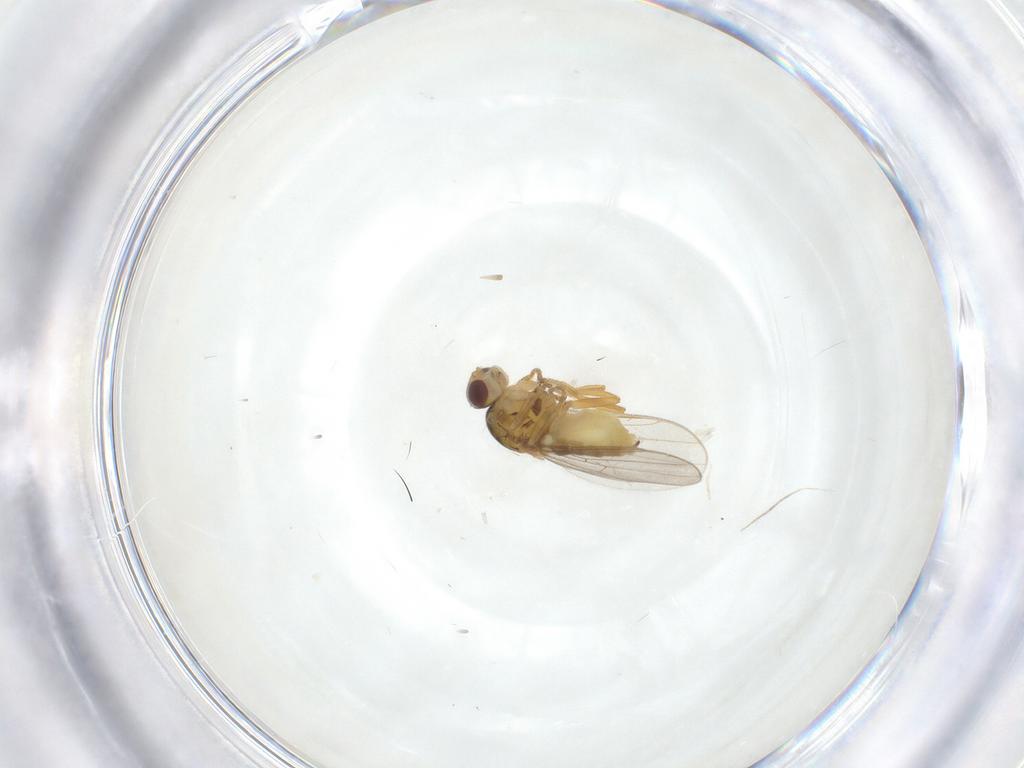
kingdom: Animalia
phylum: Arthropoda
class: Insecta
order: Diptera
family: Chloropidae
